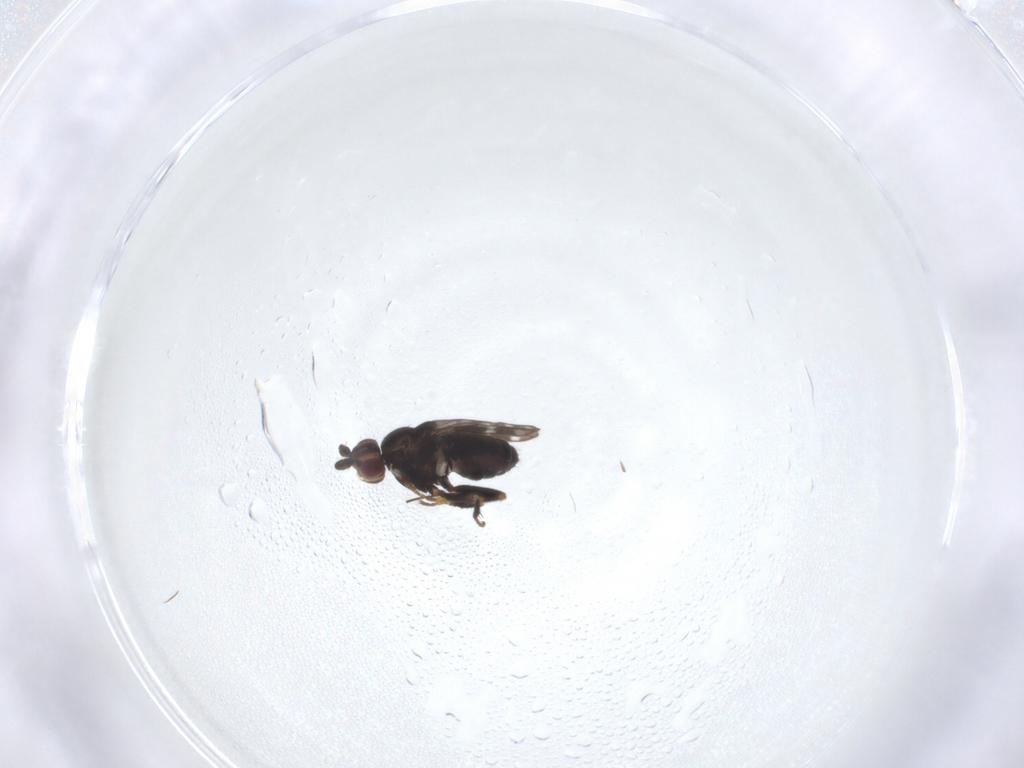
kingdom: Animalia
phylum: Arthropoda
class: Insecta
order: Diptera
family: Sphaeroceridae
